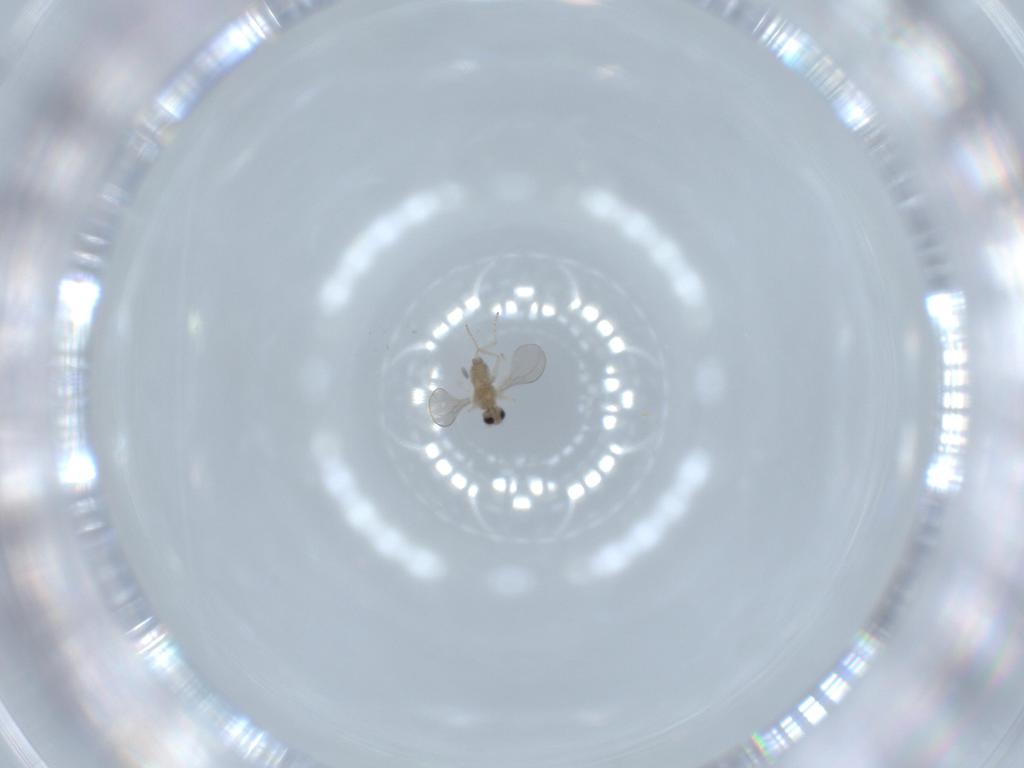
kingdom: Animalia
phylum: Arthropoda
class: Insecta
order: Diptera
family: Cecidomyiidae
